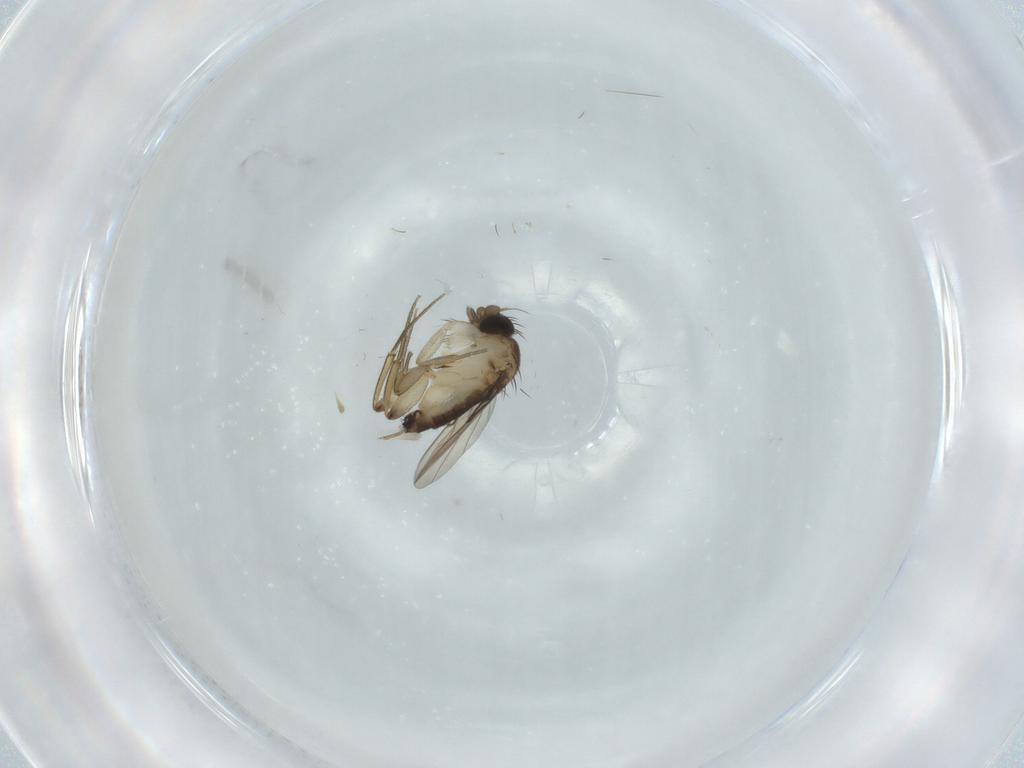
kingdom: Animalia
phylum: Arthropoda
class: Insecta
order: Diptera
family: Phoridae
